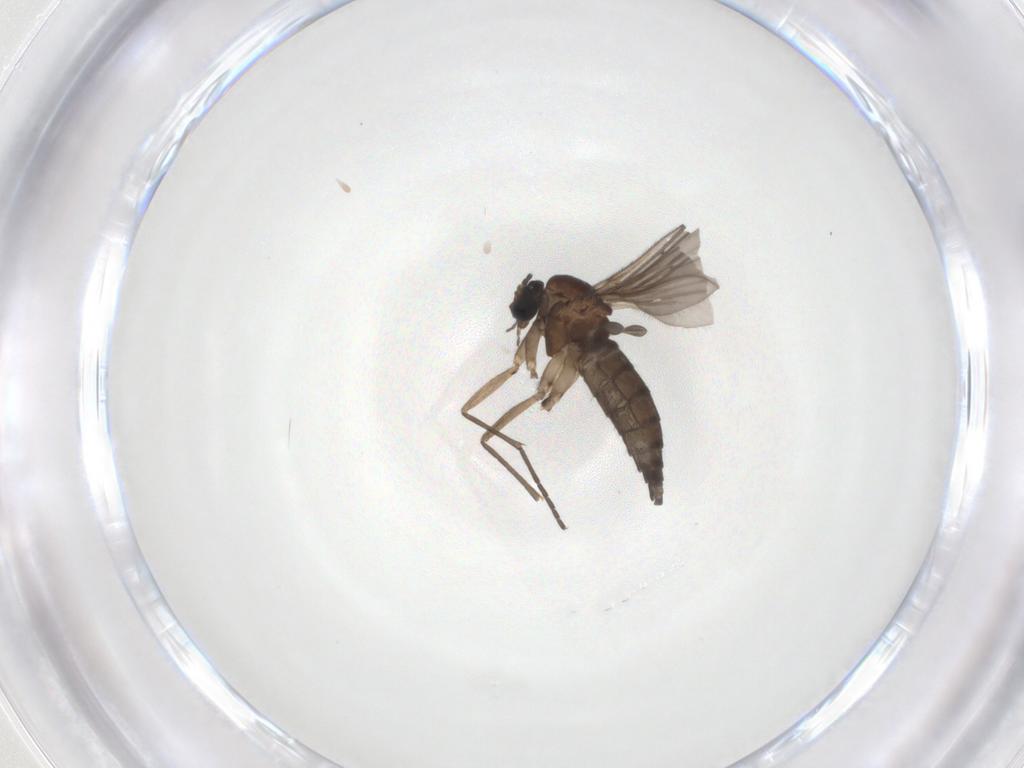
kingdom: Animalia
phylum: Arthropoda
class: Insecta
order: Diptera
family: Sciaridae
